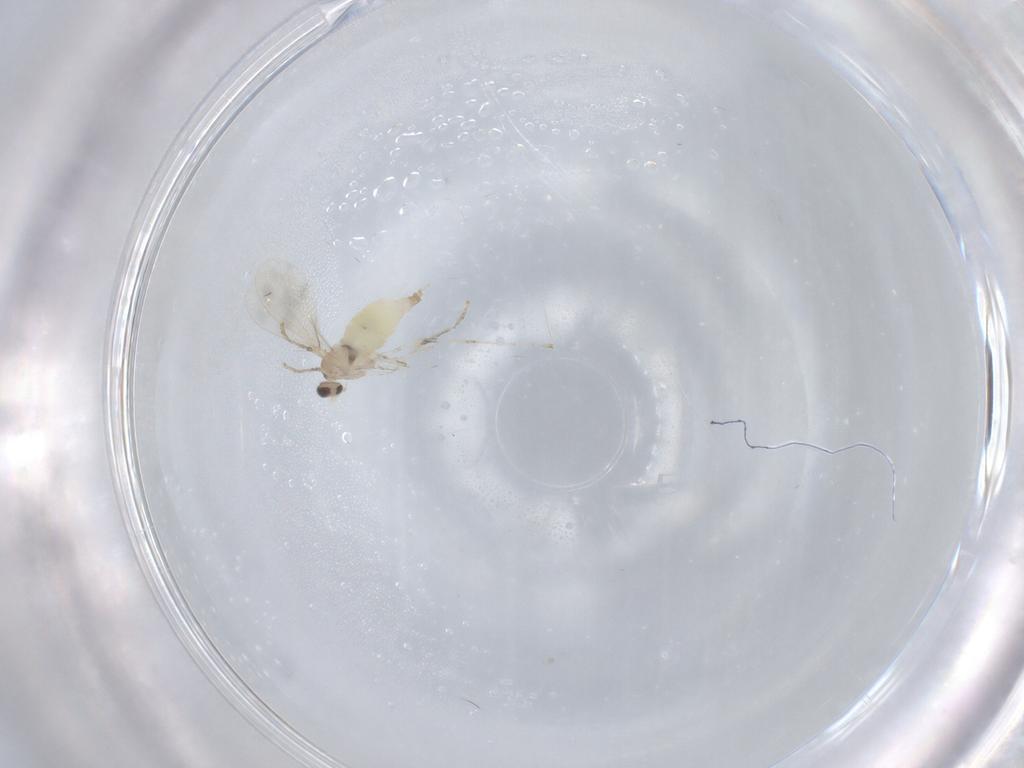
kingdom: Animalia
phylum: Arthropoda
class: Insecta
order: Diptera
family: Cecidomyiidae
